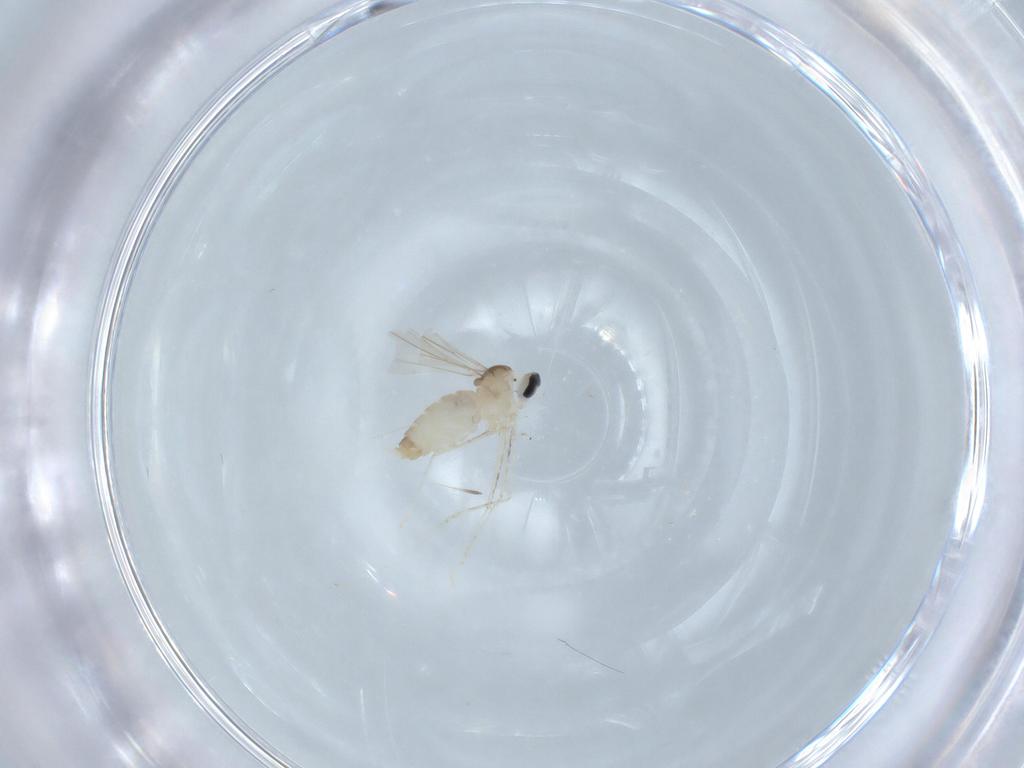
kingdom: Animalia
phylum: Arthropoda
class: Insecta
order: Diptera
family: Cecidomyiidae
